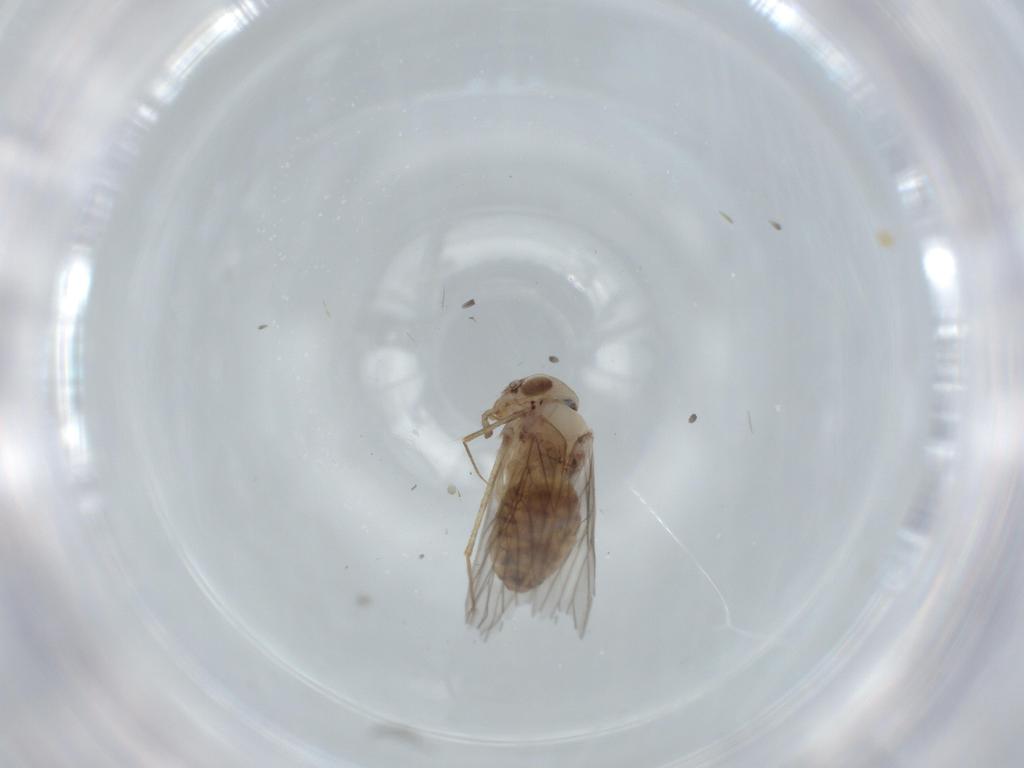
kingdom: Animalia
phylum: Arthropoda
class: Insecta
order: Psocodea
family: Lepidopsocidae
